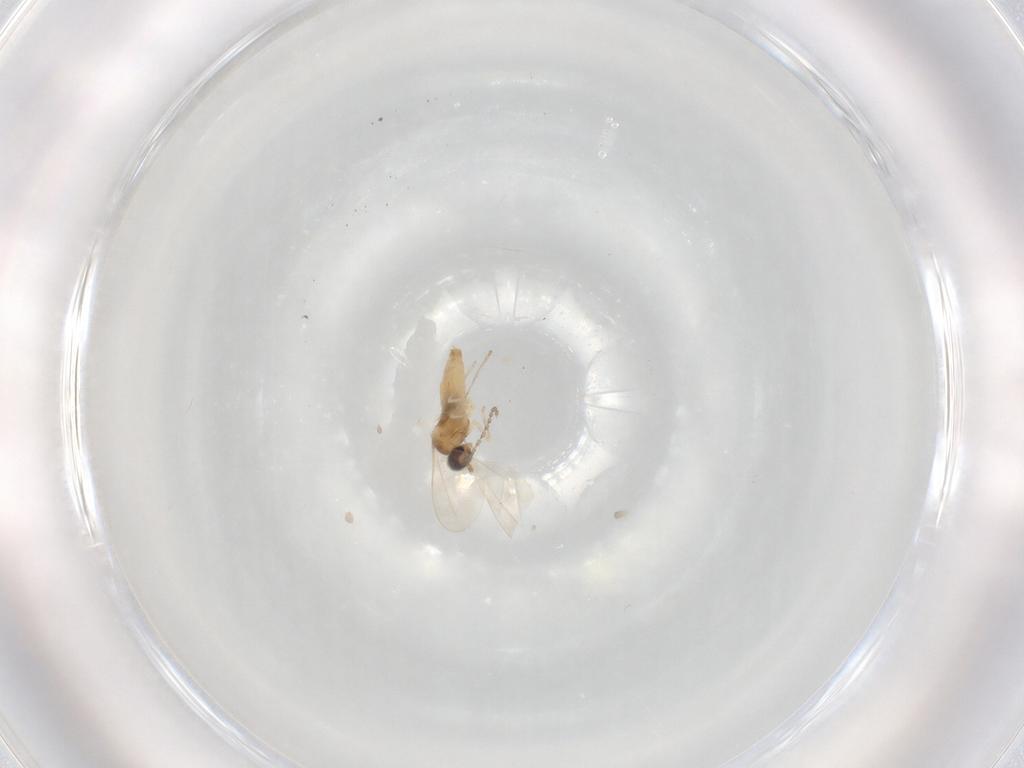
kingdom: Animalia
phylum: Arthropoda
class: Insecta
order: Diptera
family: Cecidomyiidae
